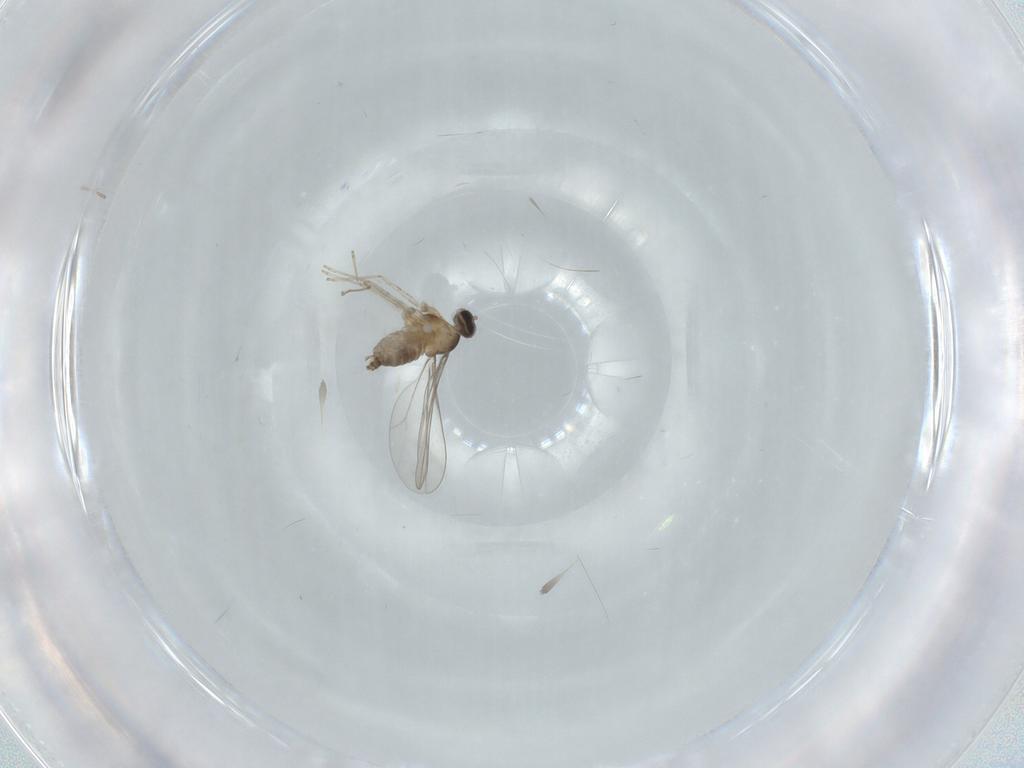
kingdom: Animalia
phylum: Arthropoda
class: Insecta
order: Diptera
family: Cecidomyiidae
